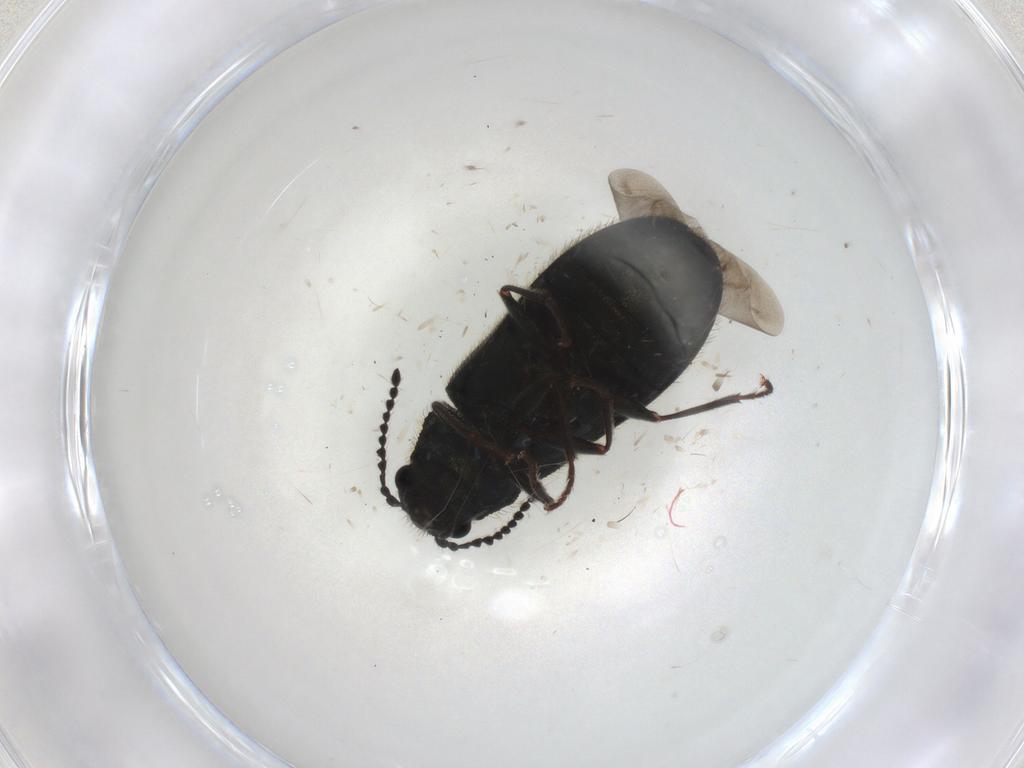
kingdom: Animalia
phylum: Arthropoda
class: Insecta
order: Coleoptera
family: Melyridae
